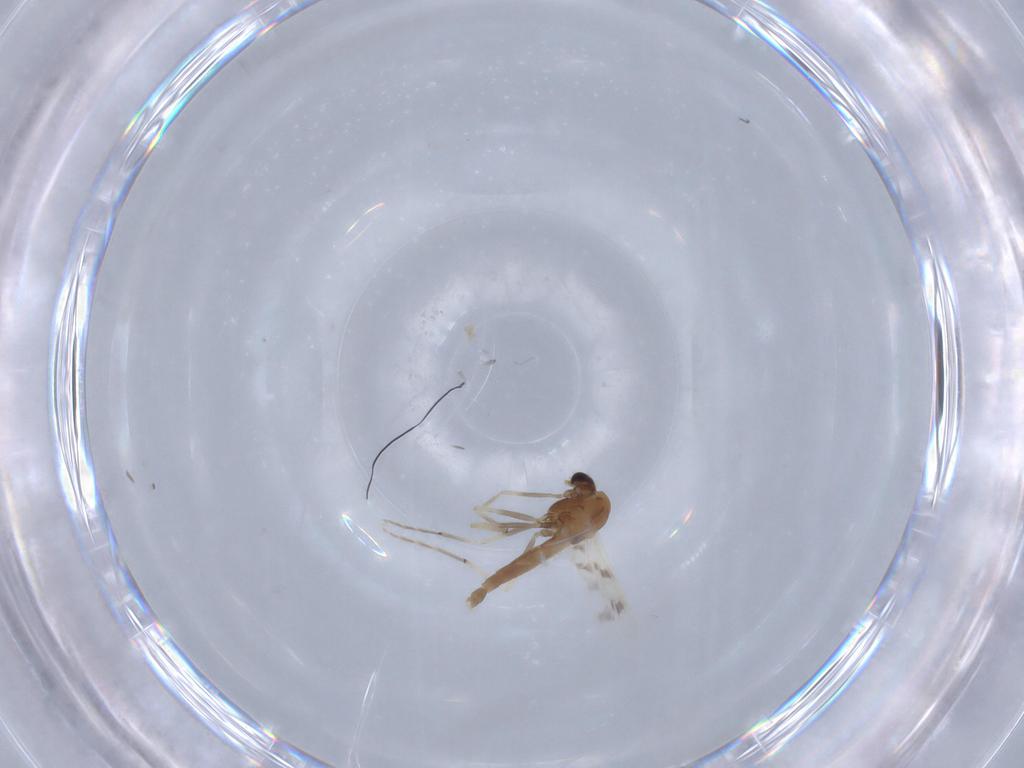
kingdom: Animalia
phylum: Arthropoda
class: Insecta
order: Diptera
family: Chironomidae
